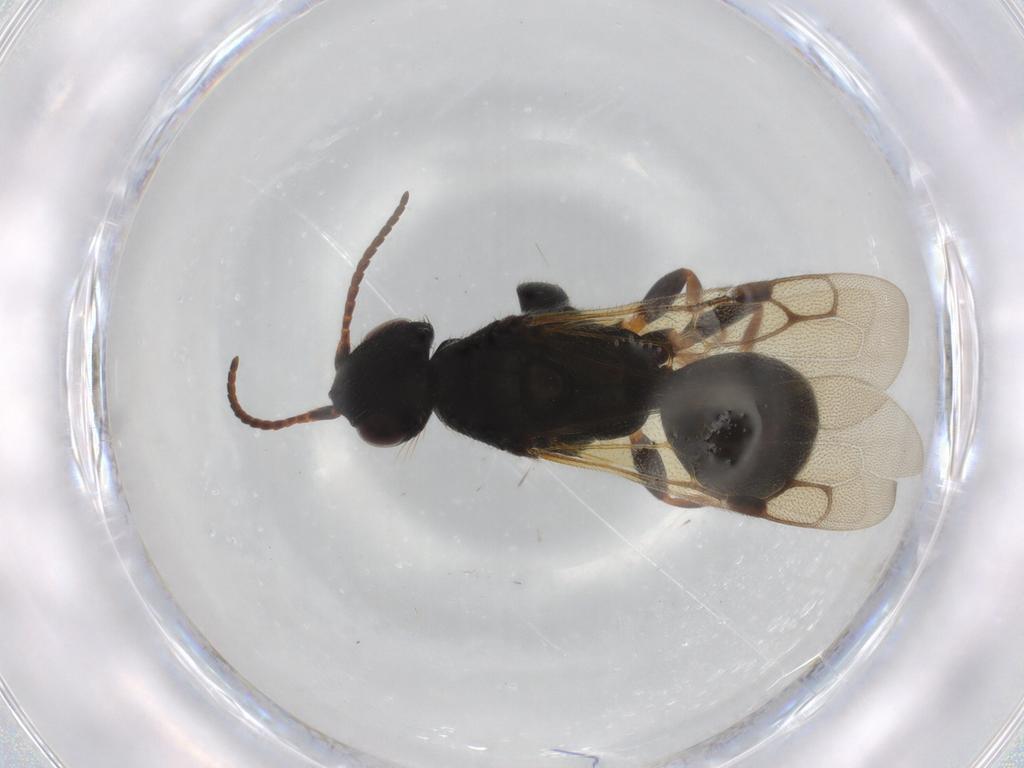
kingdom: Animalia
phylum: Arthropoda
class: Insecta
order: Hymenoptera
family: Bethylidae
